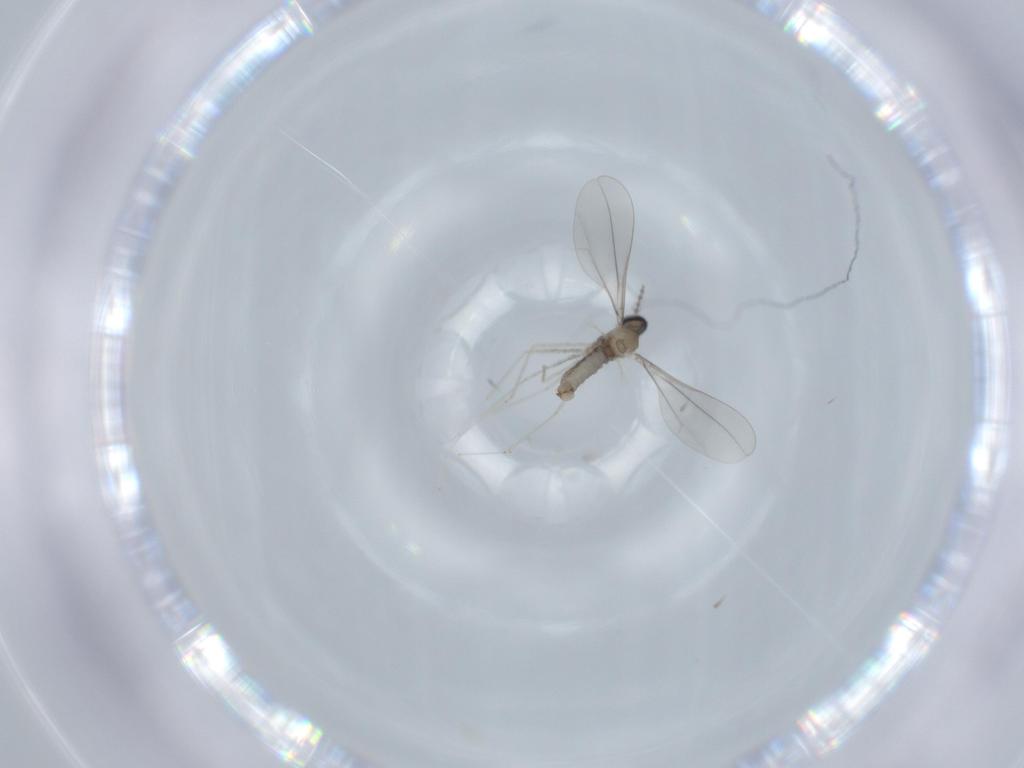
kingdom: Animalia
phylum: Arthropoda
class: Insecta
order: Diptera
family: Cecidomyiidae
